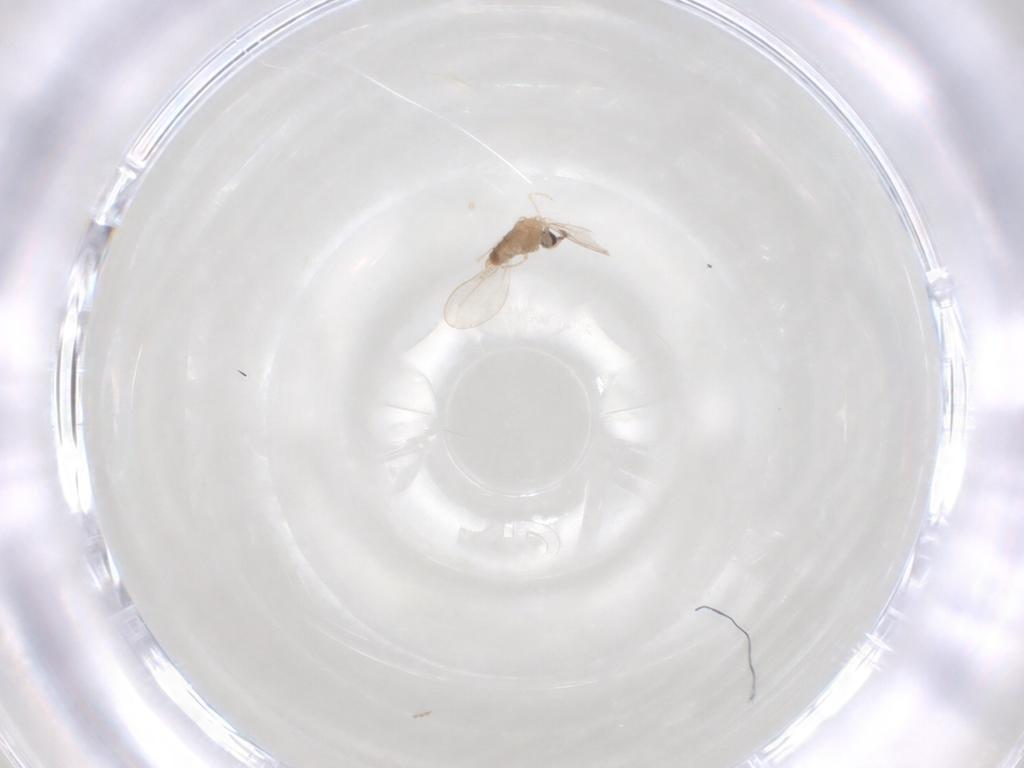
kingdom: Animalia
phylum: Arthropoda
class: Insecta
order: Diptera
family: Cecidomyiidae
